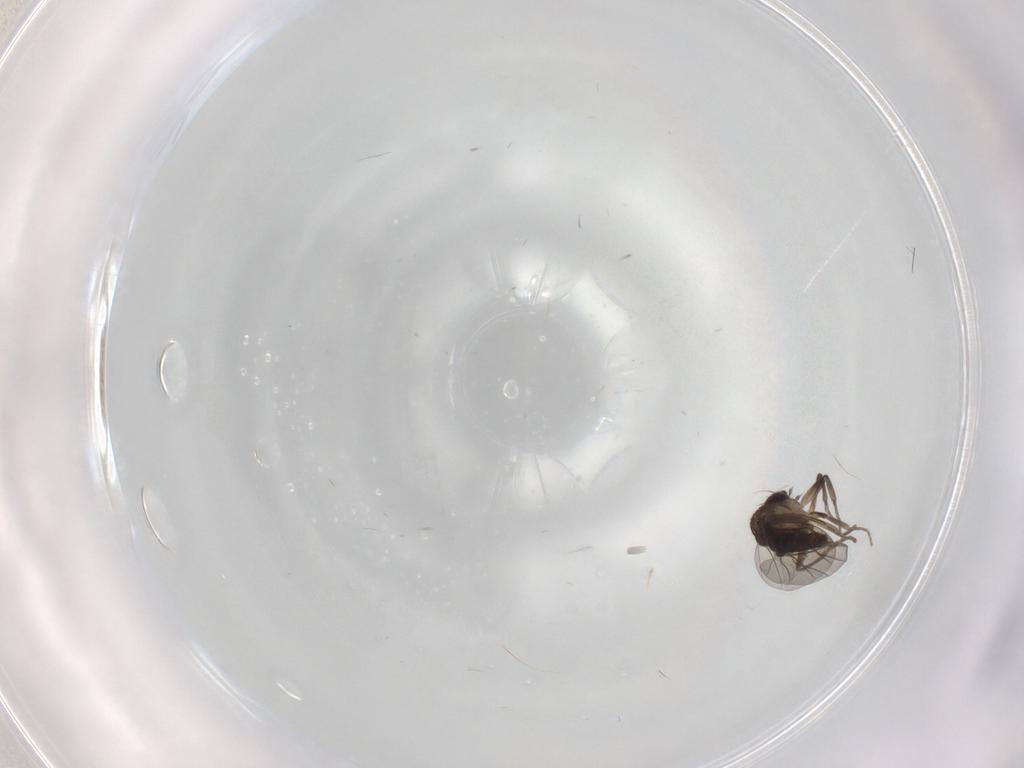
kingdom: Animalia
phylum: Arthropoda
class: Insecta
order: Diptera
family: Phoridae
